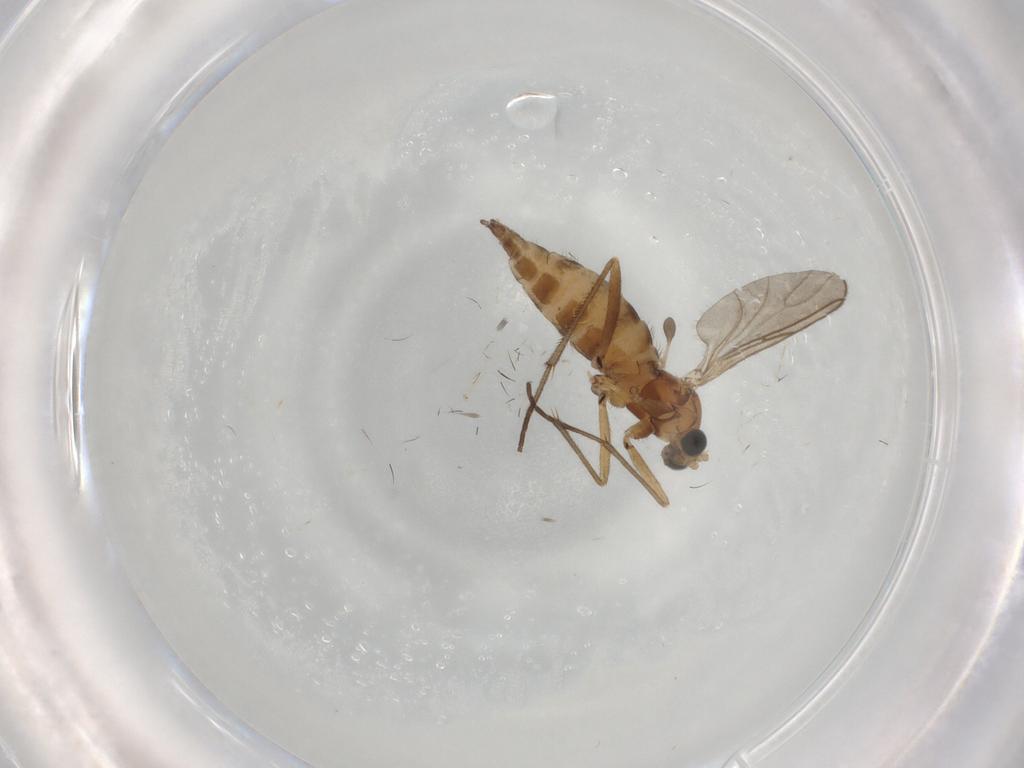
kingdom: Animalia
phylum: Arthropoda
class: Insecta
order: Diptera
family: Sciaridae
